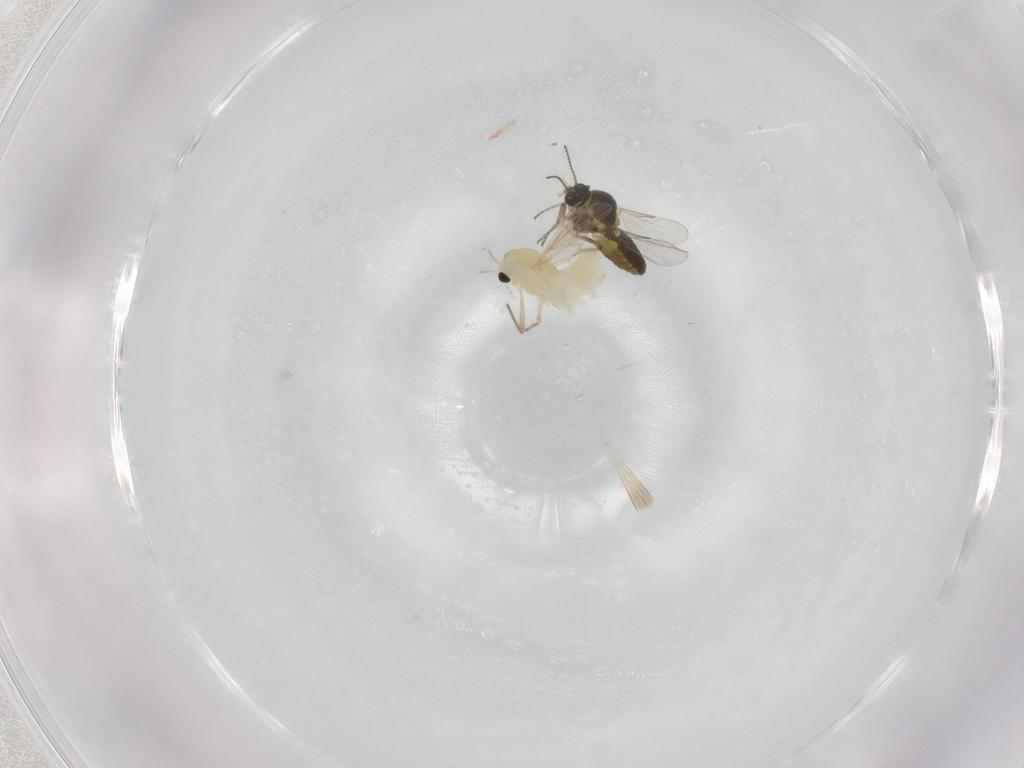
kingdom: Animalia
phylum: Arthropoda
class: Insecta
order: Diptera
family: Chironomidae
